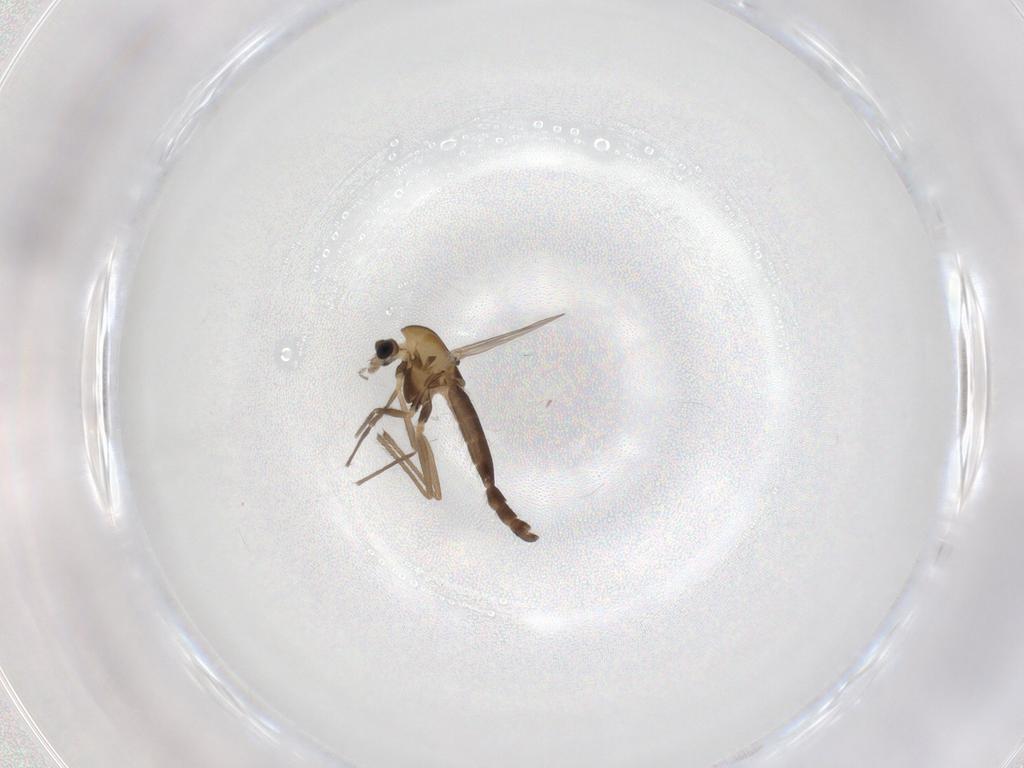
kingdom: Animalia
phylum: Arthropoda
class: Insecta
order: Diptera
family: Chironomidae
